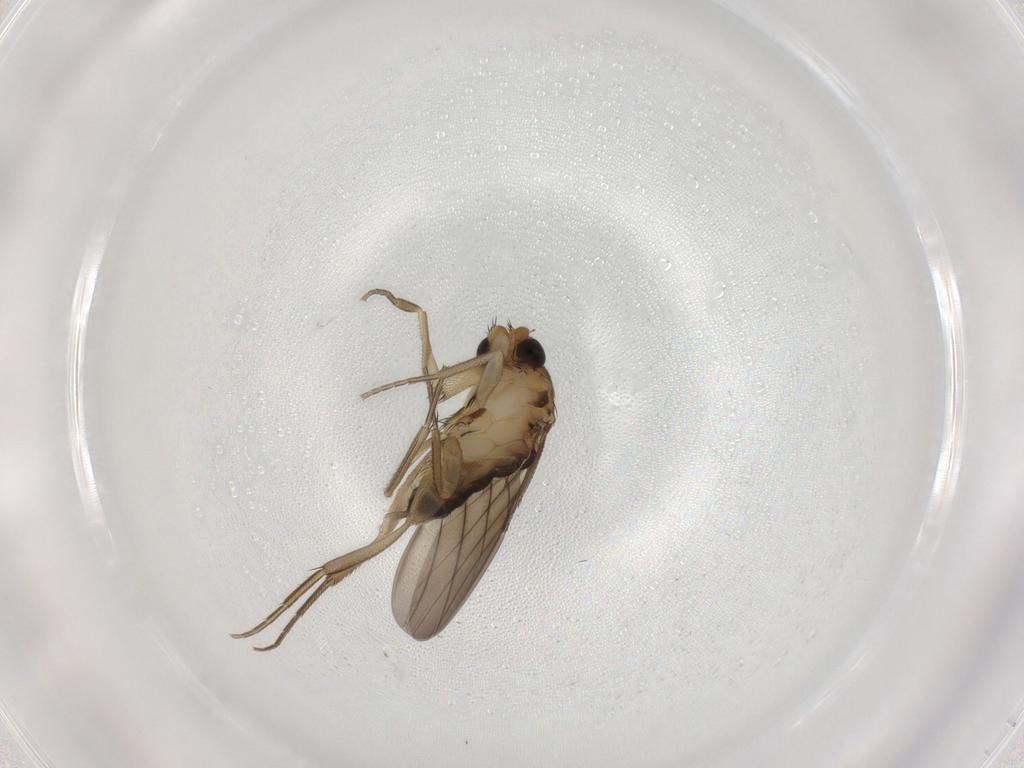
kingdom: Animalia
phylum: Arthropoda
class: Insecta
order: Diptera
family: Phoridae
